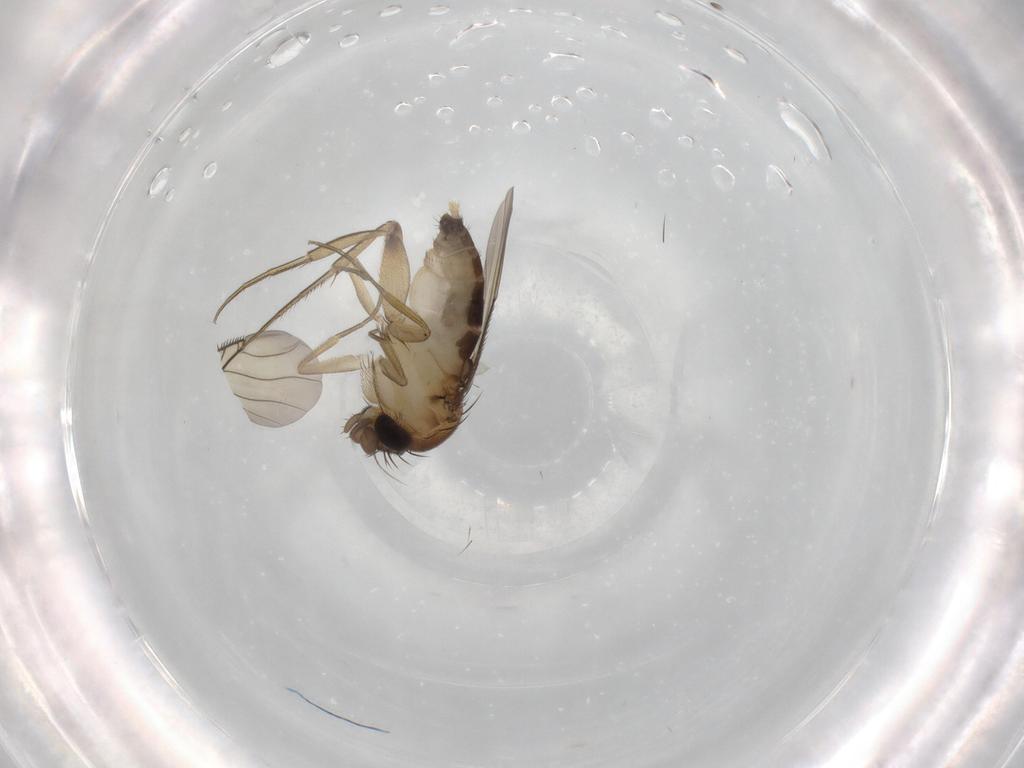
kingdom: Animalia
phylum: Arthropoda
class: Insecta
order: Diptera
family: Phoridae
